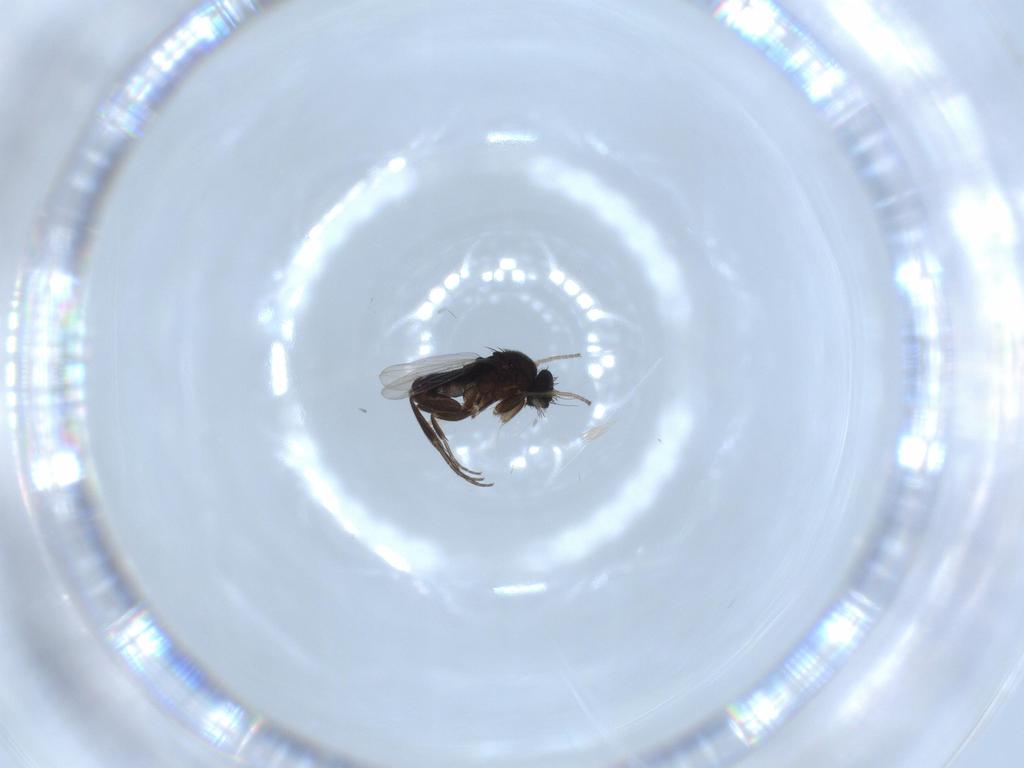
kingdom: Animalia
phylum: Arthropoda
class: Insecta
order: Diptera
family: Phoridae
